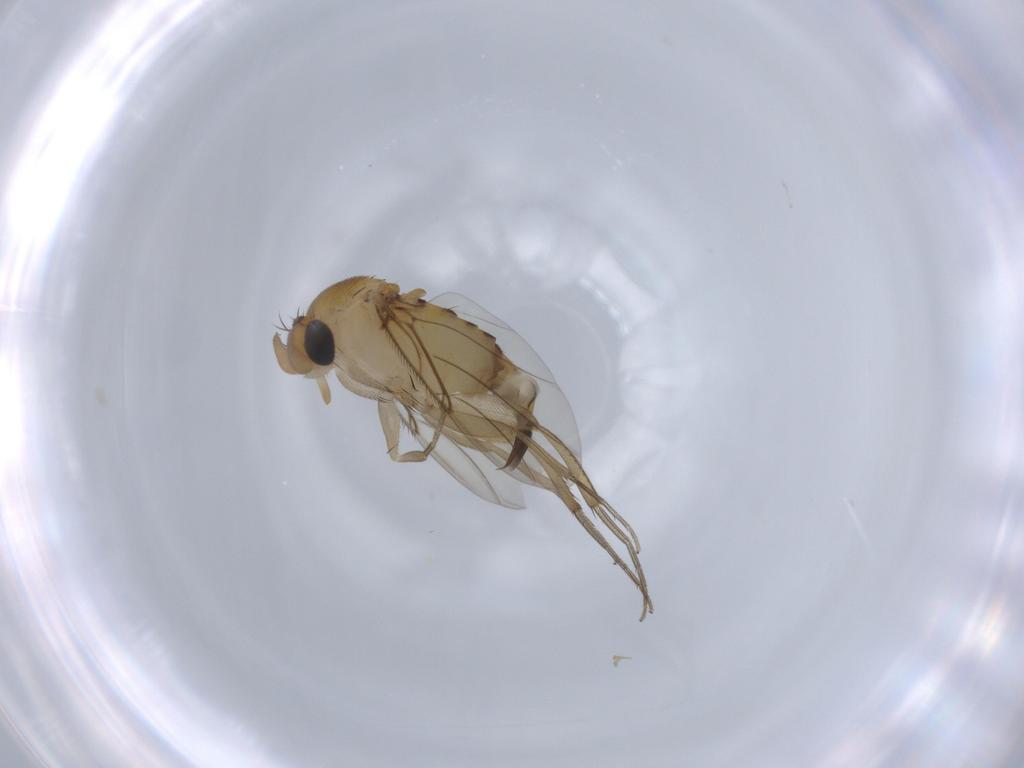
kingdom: Animalia
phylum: Arthropoda
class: Insecta
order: Diptera
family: Phoridae
